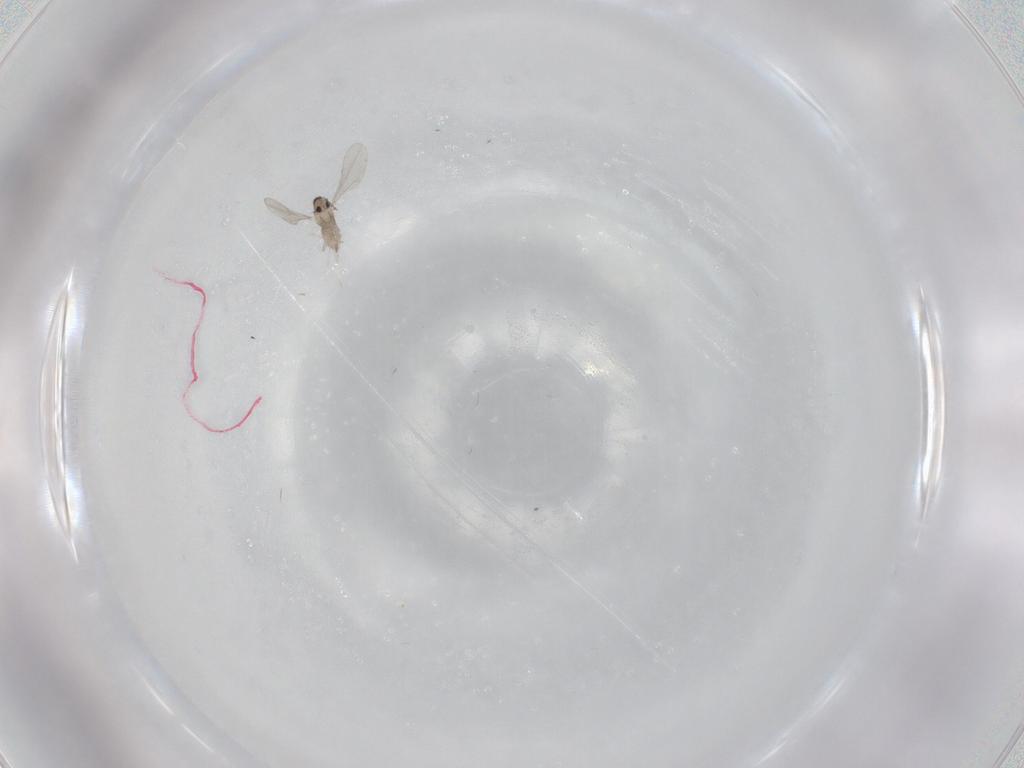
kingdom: Animalia
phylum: Arthropoda
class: Insecta
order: Diptera
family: Cecidomyiidae
